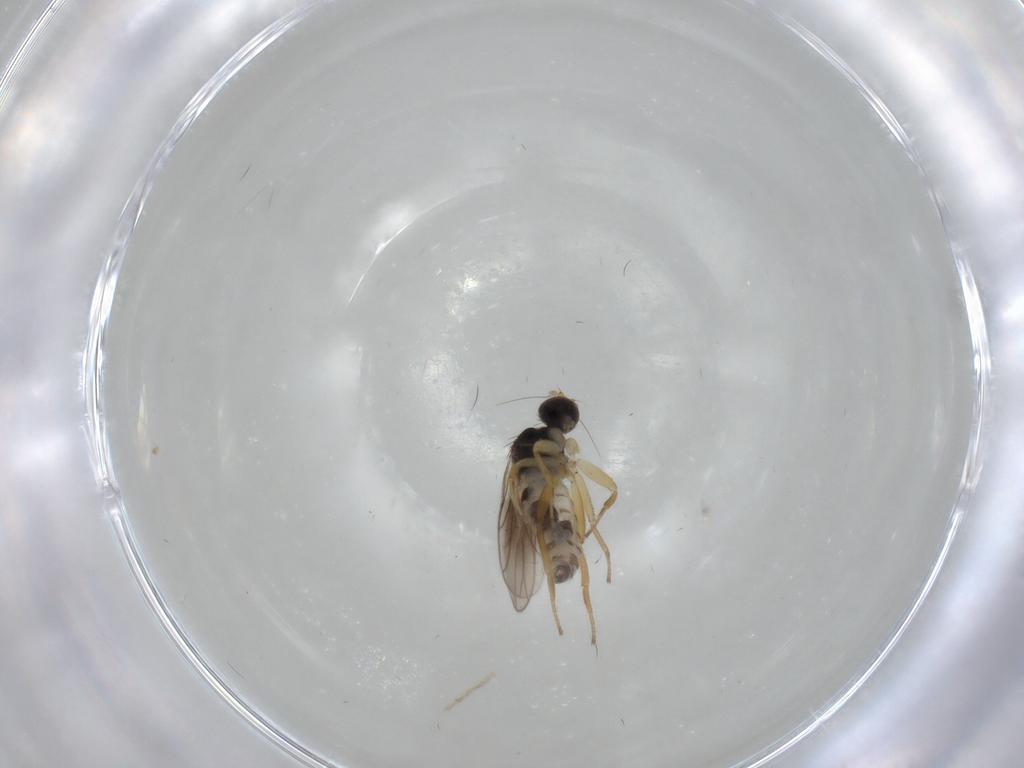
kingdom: Animalia
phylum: Arthropoda
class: Insecta
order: Diptera
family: Hybotidae
